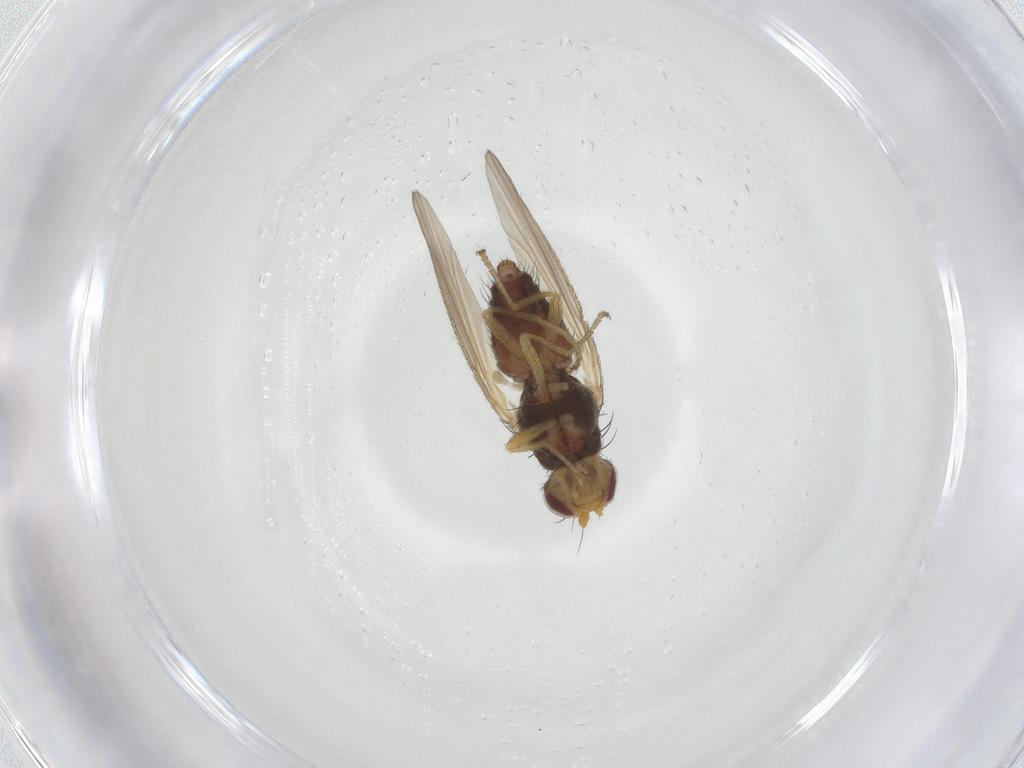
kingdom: Animalia
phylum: Arthropoda
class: Insecta
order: Diptera
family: Heleomyzidae
